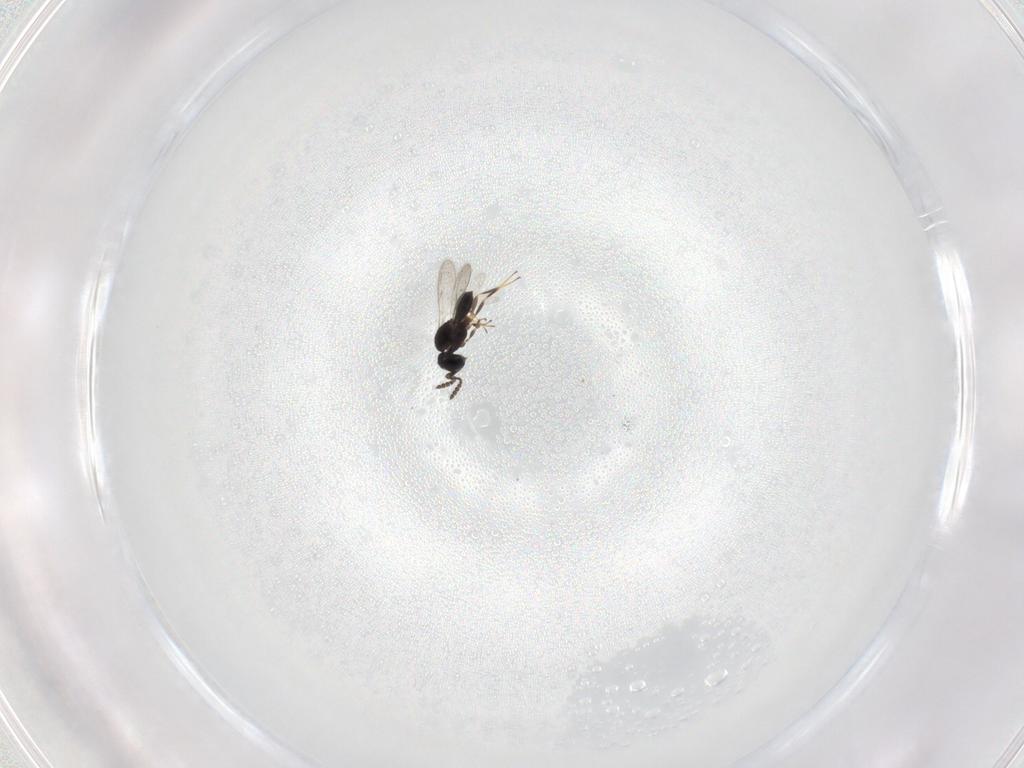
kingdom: Animalia
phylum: Arthropoda
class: Insecta
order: Hymenoptera
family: Scelionidae
